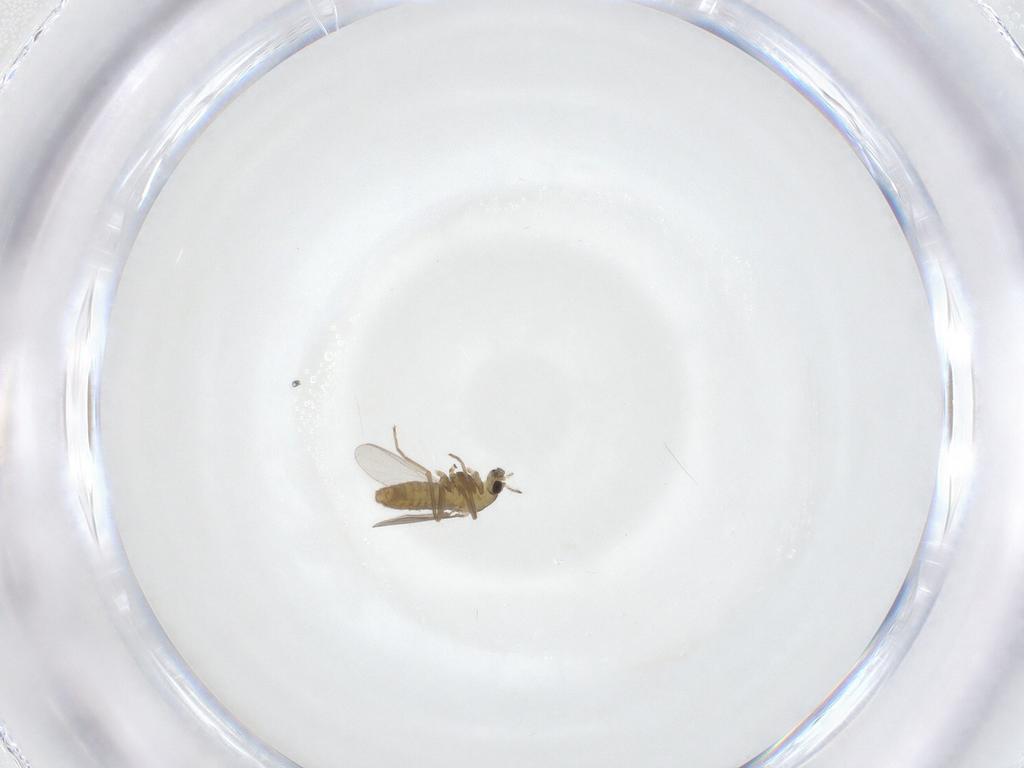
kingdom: Animalia
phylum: Arthropoda
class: Insecta
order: Diptera
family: Chironomidae
